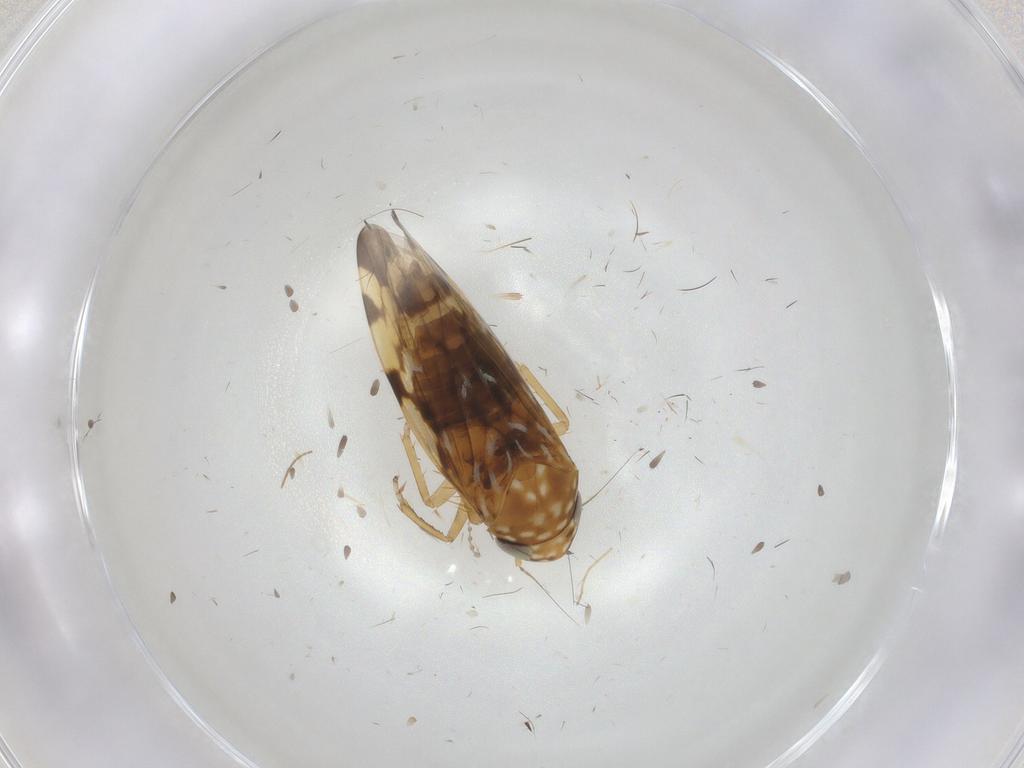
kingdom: Animalia
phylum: Arthropoda
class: Insecta
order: Hemiptera
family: Cicadellidae
